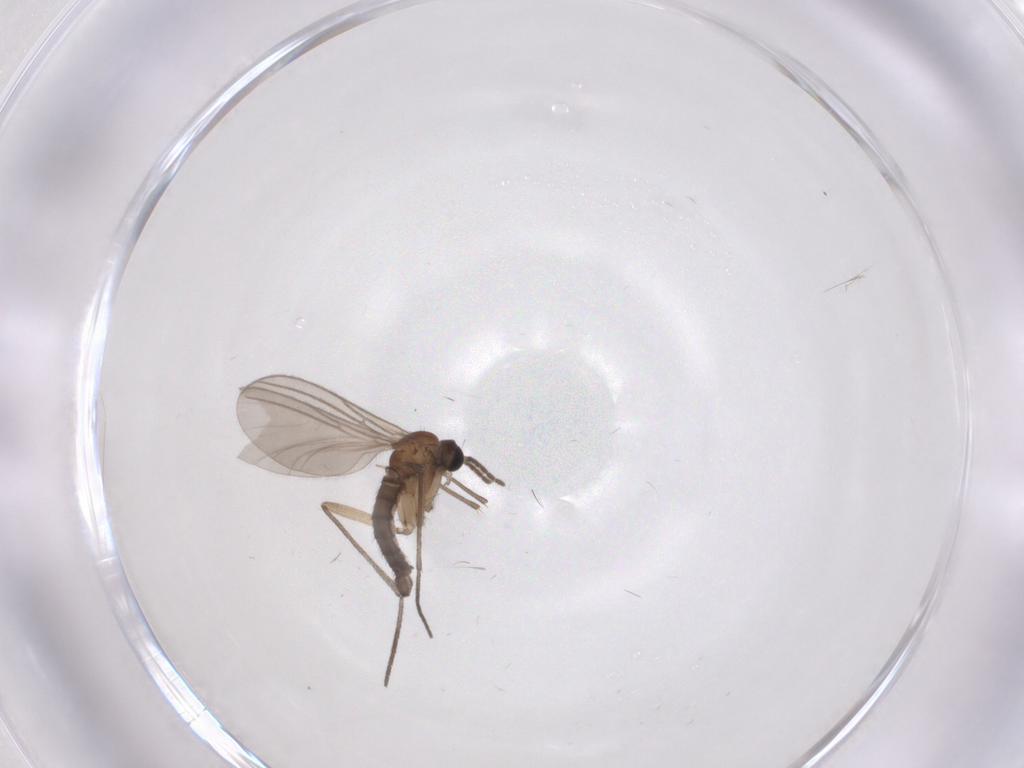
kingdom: Animalia
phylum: Arthropoda
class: Insecta
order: Diptera
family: Sciaridae
